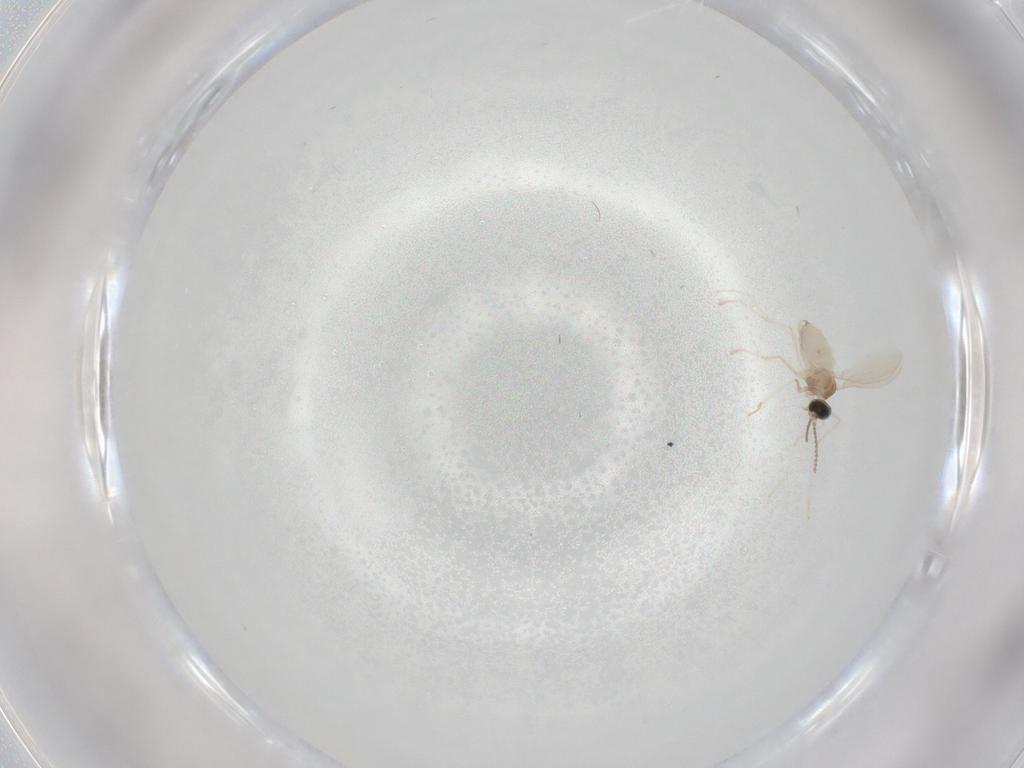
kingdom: Animalia
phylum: Arthropoda
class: Insecta
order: Diptera
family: Chironomidae
